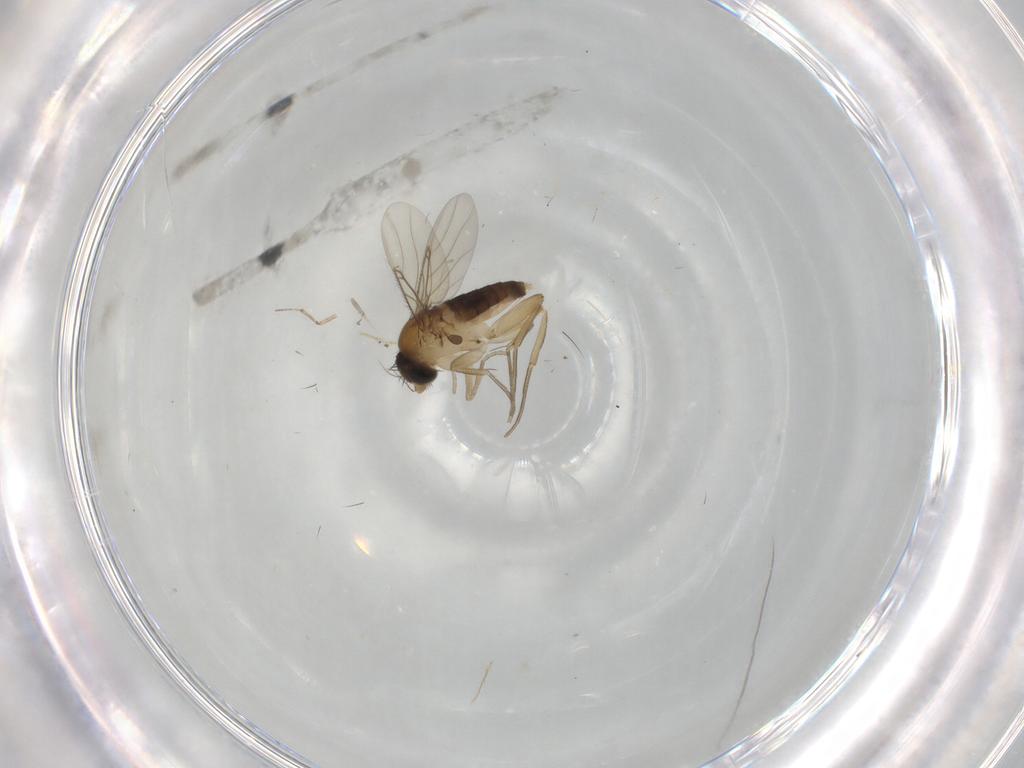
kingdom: Animalia
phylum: Arthropoda
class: Insecta
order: Diptera
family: Phoridae
